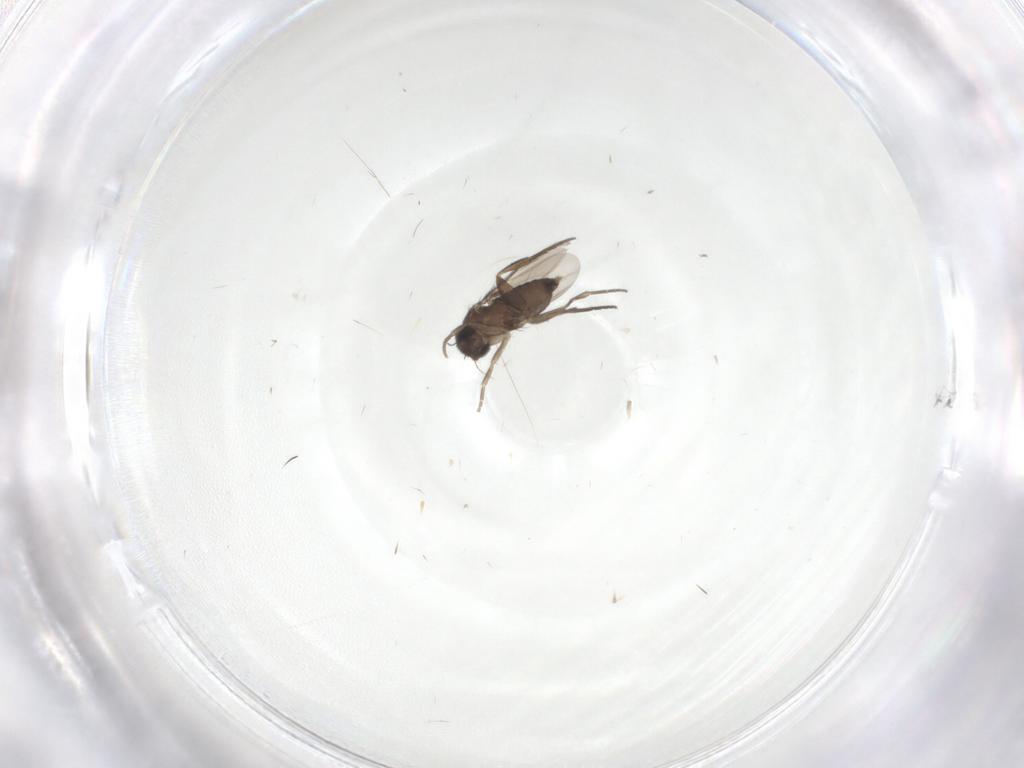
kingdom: Animalia
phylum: Arthropoda
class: Insecta
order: Diptera
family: Phoridae
